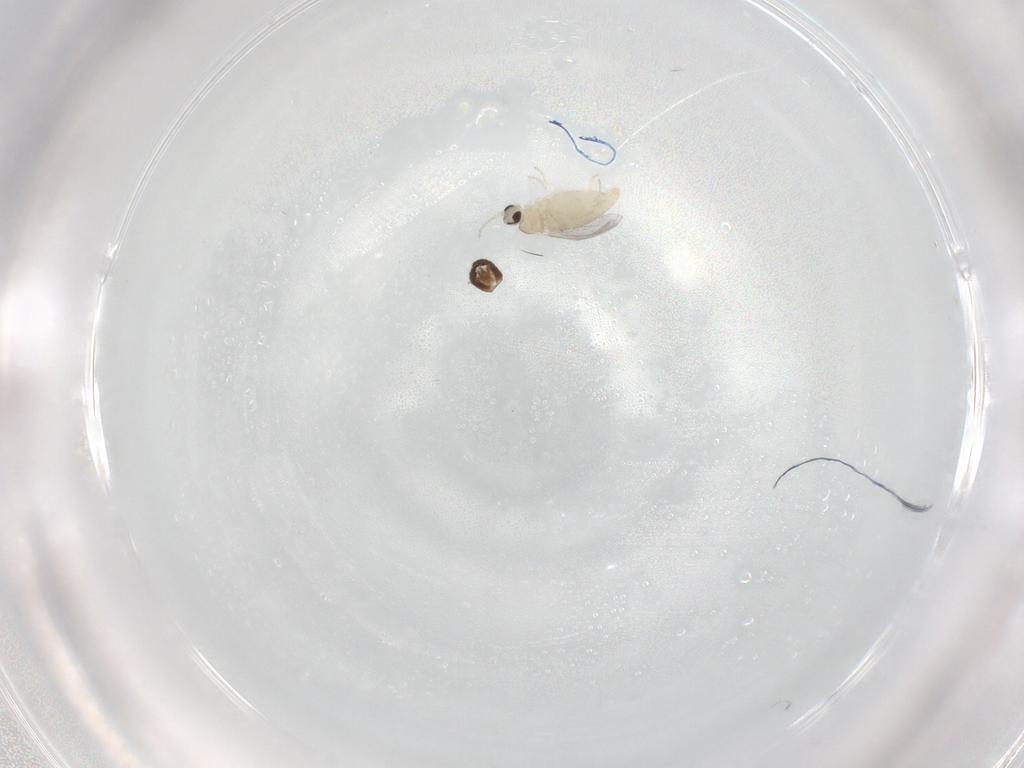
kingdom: Animalia
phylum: Arthropoda
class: Insecta
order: Diptera
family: Chironomidae
